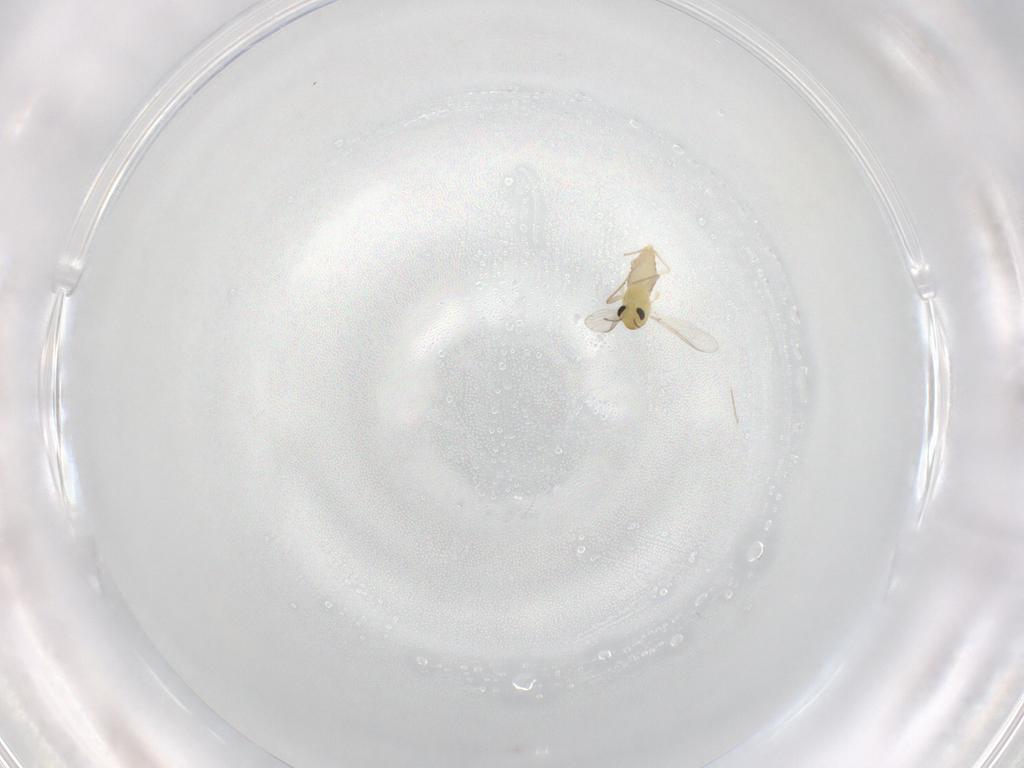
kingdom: Animalia
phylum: Arthropoda
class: Insecta
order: Diptera
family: Chironomidae
